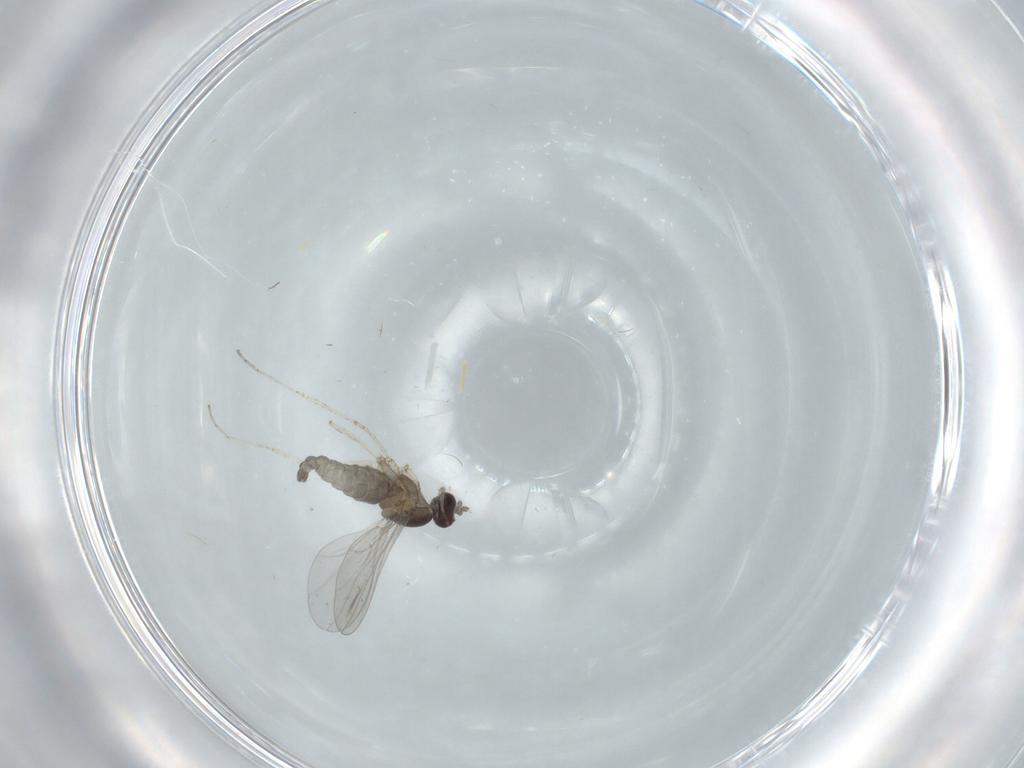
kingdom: Animalia
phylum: Arthropoda
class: Insecta
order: Diptera
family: Cecidomyiidae
